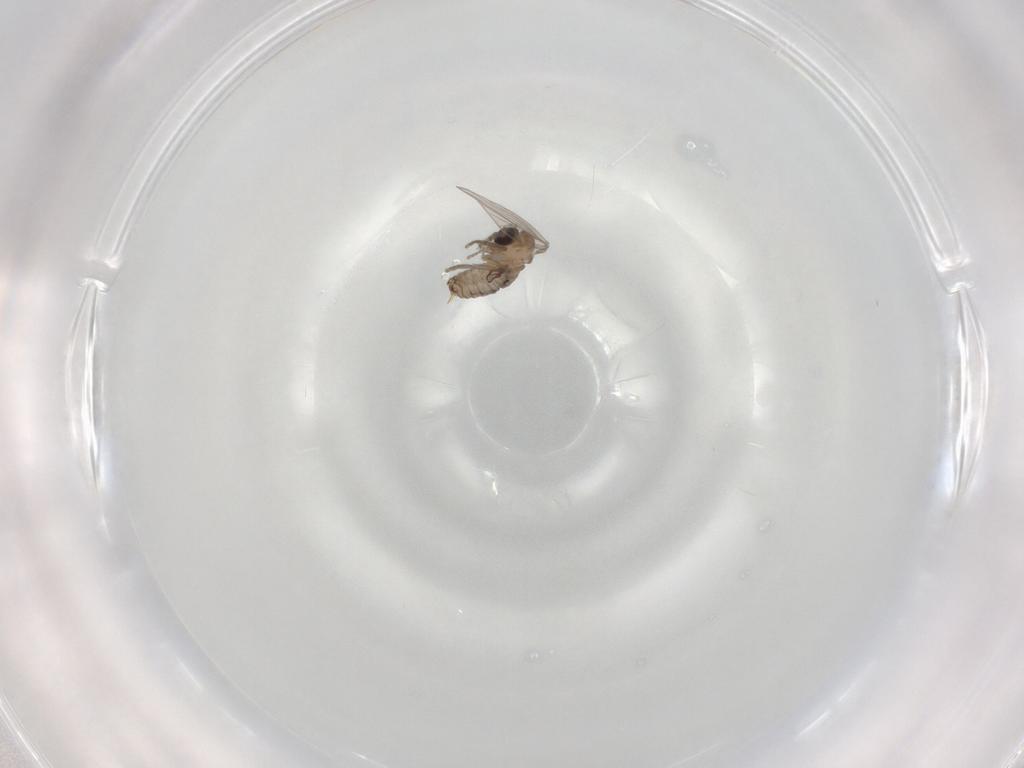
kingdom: Animalia
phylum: Arthropoda
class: Insecta
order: Diptera
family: Psychodidae
